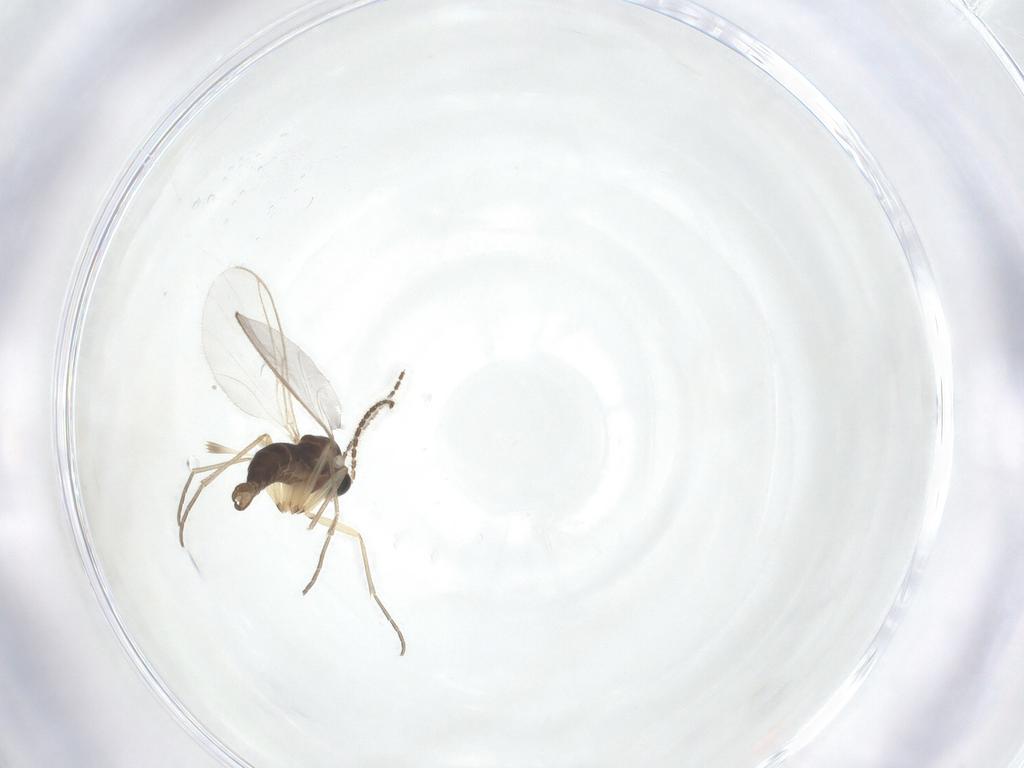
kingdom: Animalia
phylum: Arthropoda
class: Insecta
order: Diptera
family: Sciaridae
